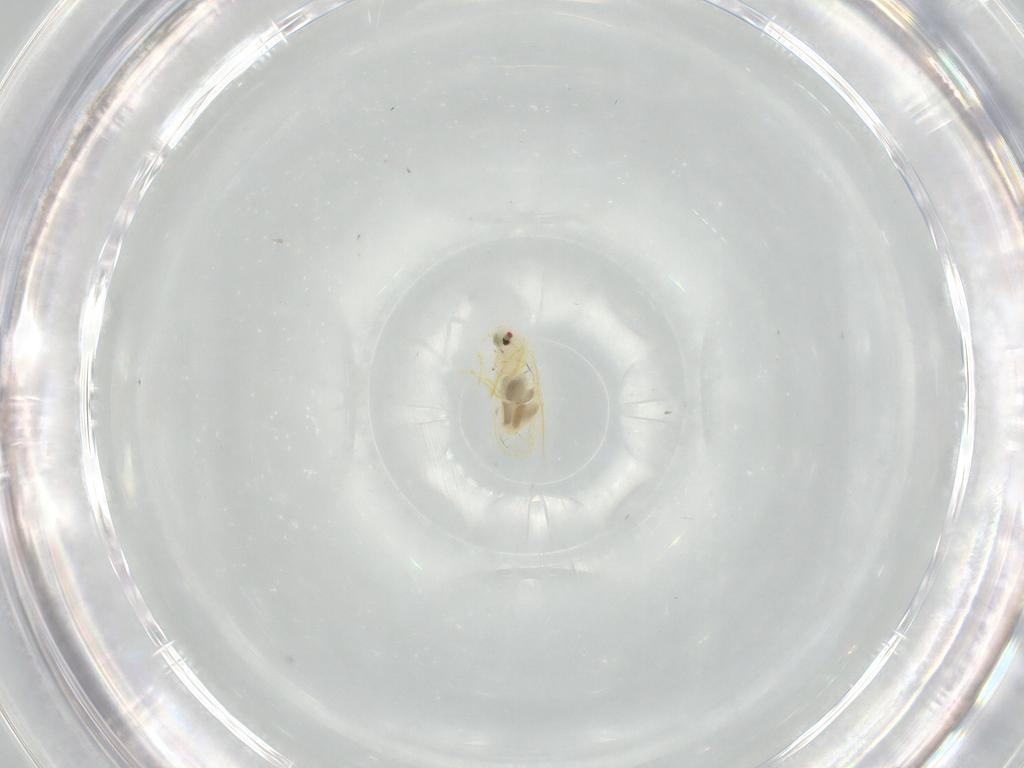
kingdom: Animalia
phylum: Arthropoda
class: Insecta
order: Hemiptera
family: Aleyrodidae
